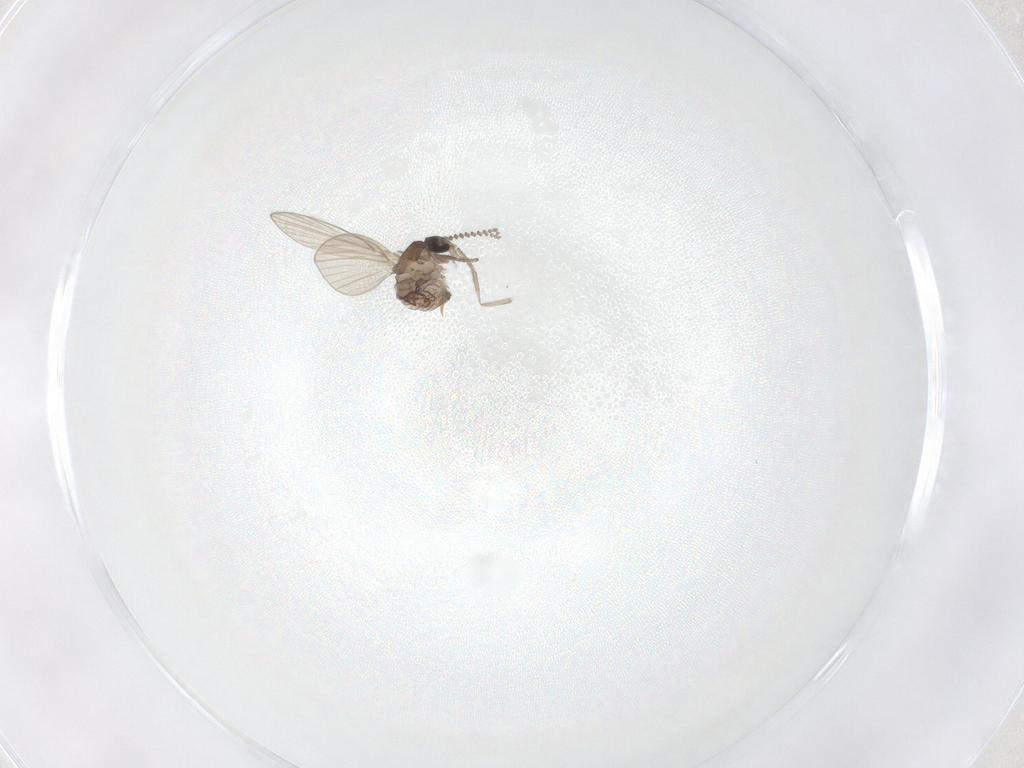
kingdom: Animalia
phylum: Arthropoda
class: Insecta
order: Diptera
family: Psychodidae
